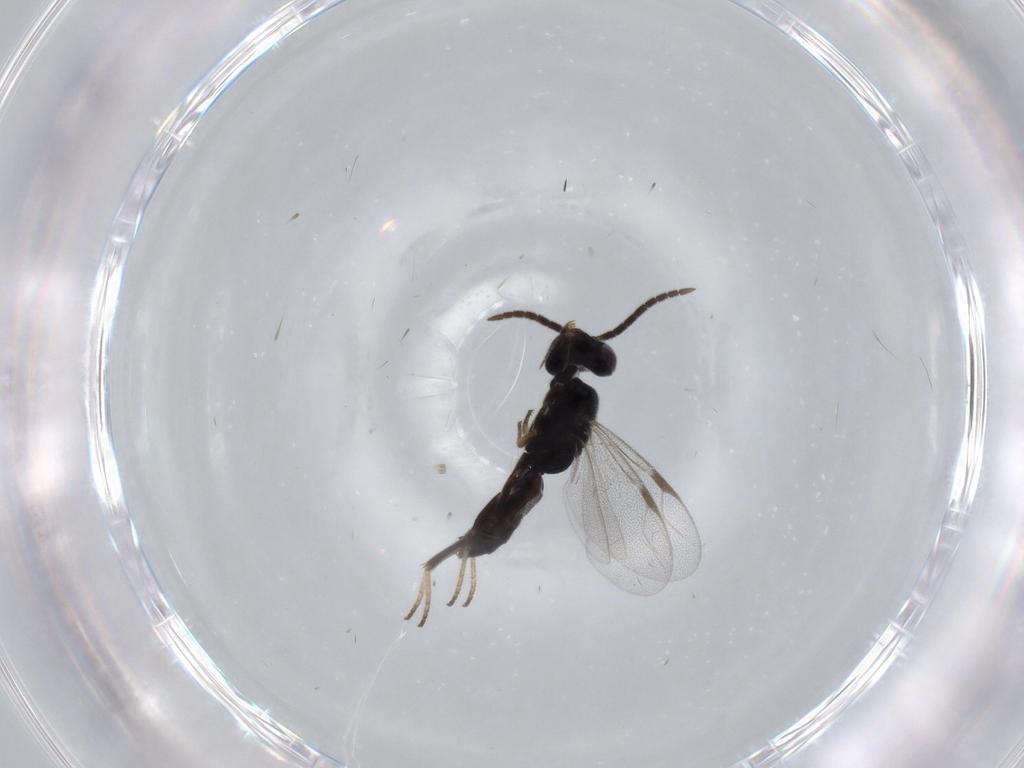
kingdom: Animalia
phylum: Arthropoda
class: Insecta
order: Hymenoptera
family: Dryinidae
